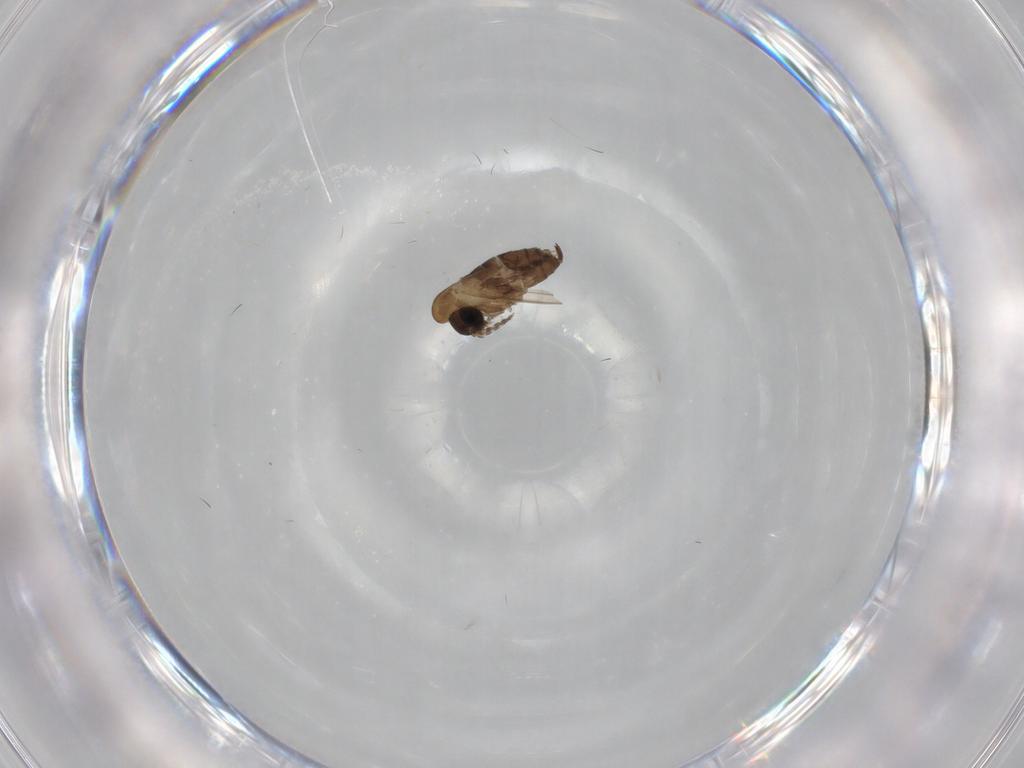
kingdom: Animalia
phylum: Arthropoda
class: Insecta
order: Diptera
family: Psychodidae
